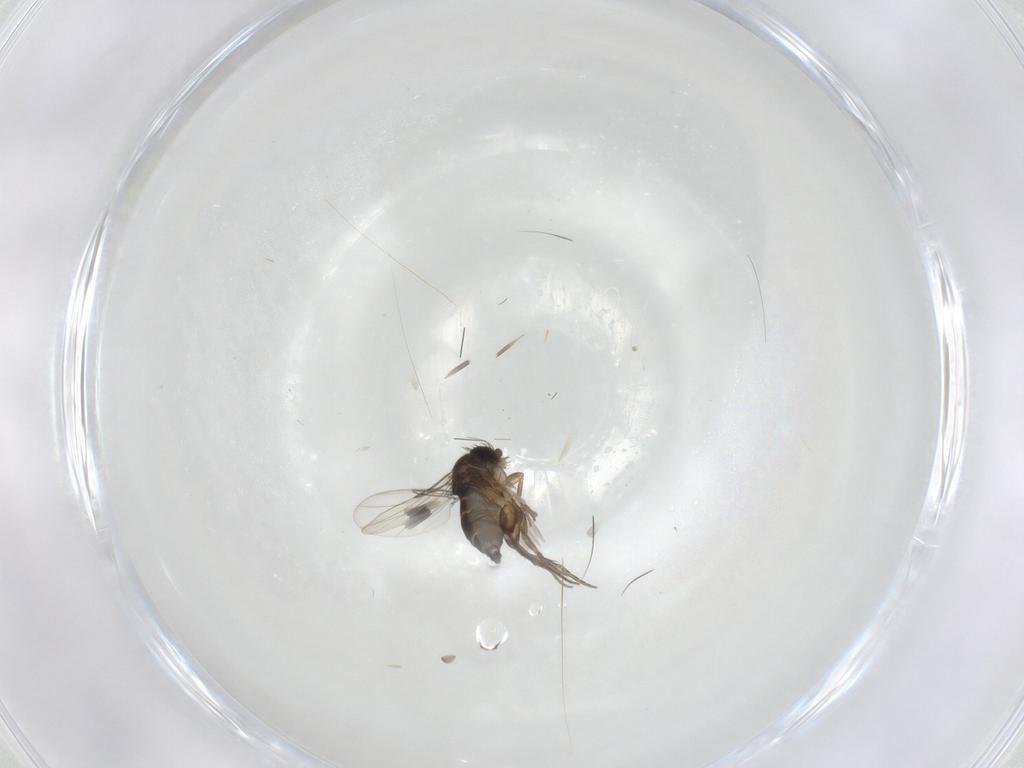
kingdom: Animalia
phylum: Arthropoda
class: Insecta
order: Diptera
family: Phoridae
